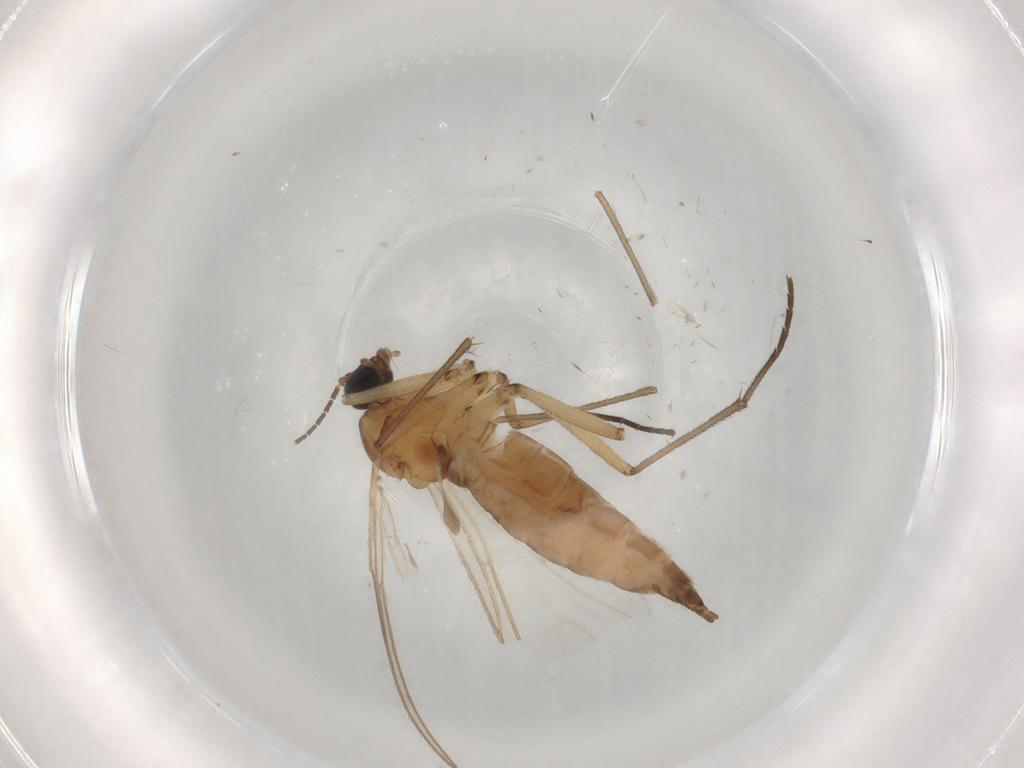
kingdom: Animalia
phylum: Arthropoda
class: Insecta
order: Diptera
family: Sciaridae
